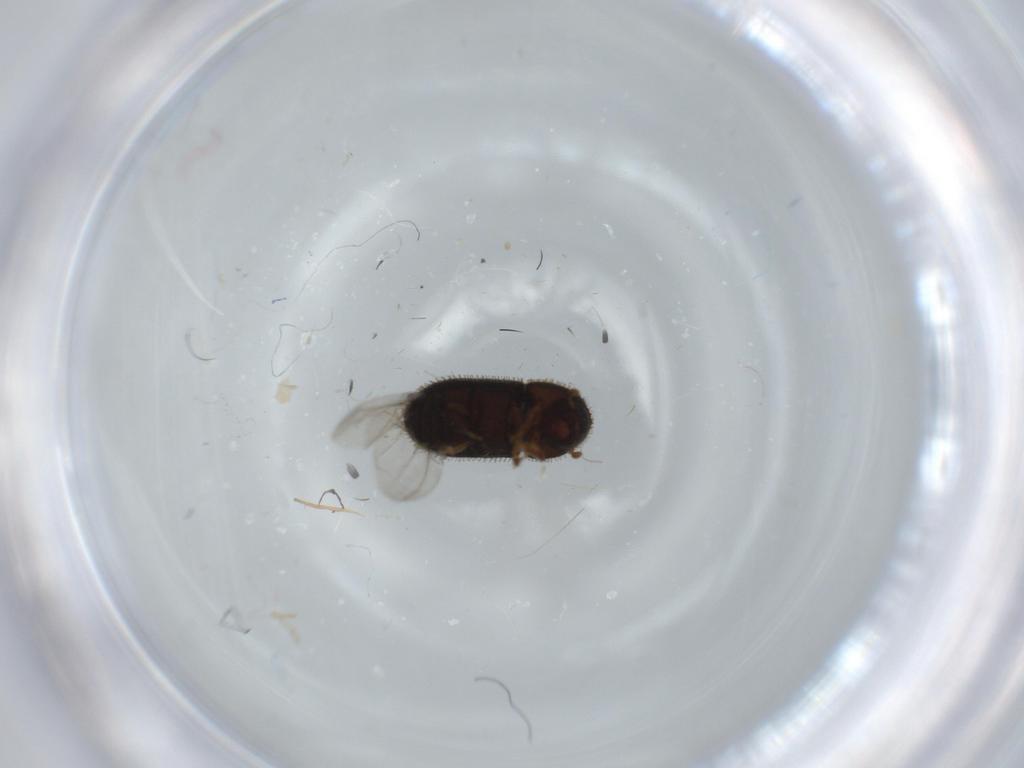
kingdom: Animalia
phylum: Arthropoda
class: Insecta
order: Coleoptera
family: Curculionidae
